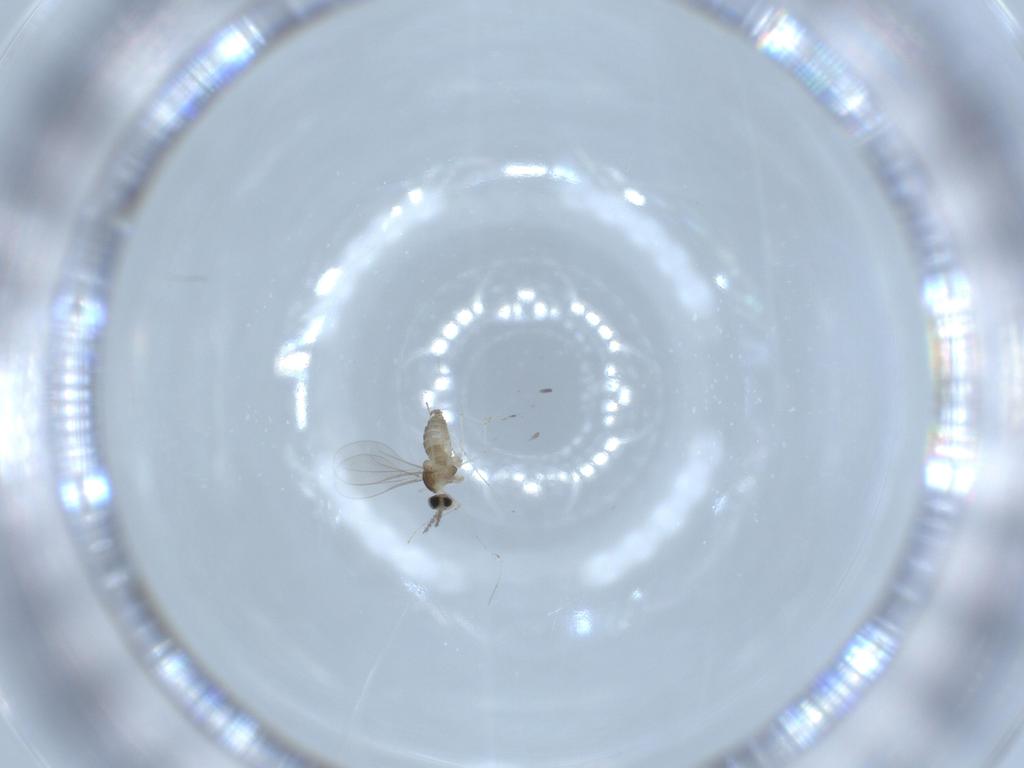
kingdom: Animalia
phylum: Arthropoda
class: Insecta
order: Diptera
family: Cecidomyiidae
